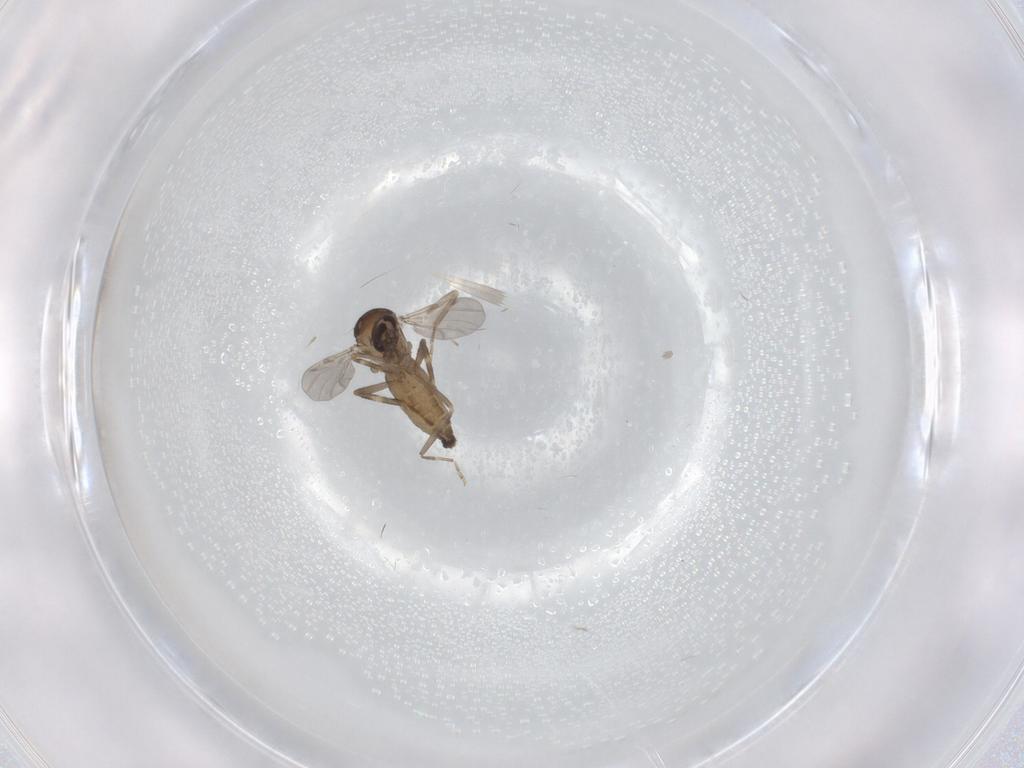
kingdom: Animalia
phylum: Arthropoda
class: Insecta
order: Diptera
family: Ceratopogonidae
